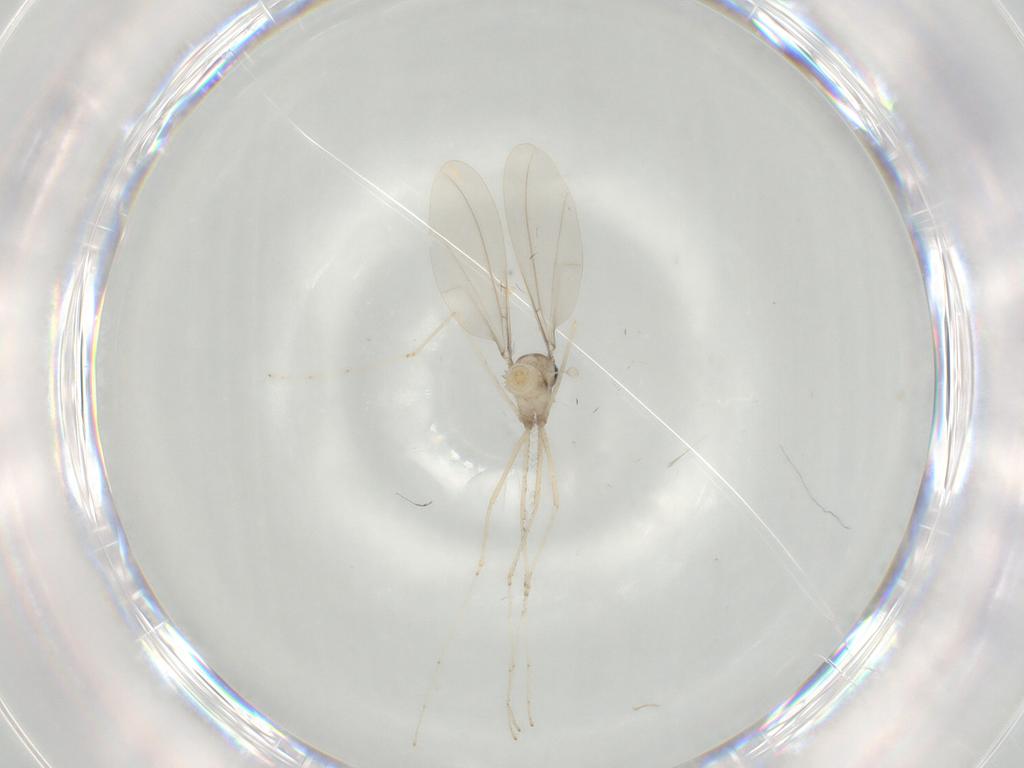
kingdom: Animalia
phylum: Arthropoda
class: Insecta
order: Diptera
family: Cecidomyiidae
